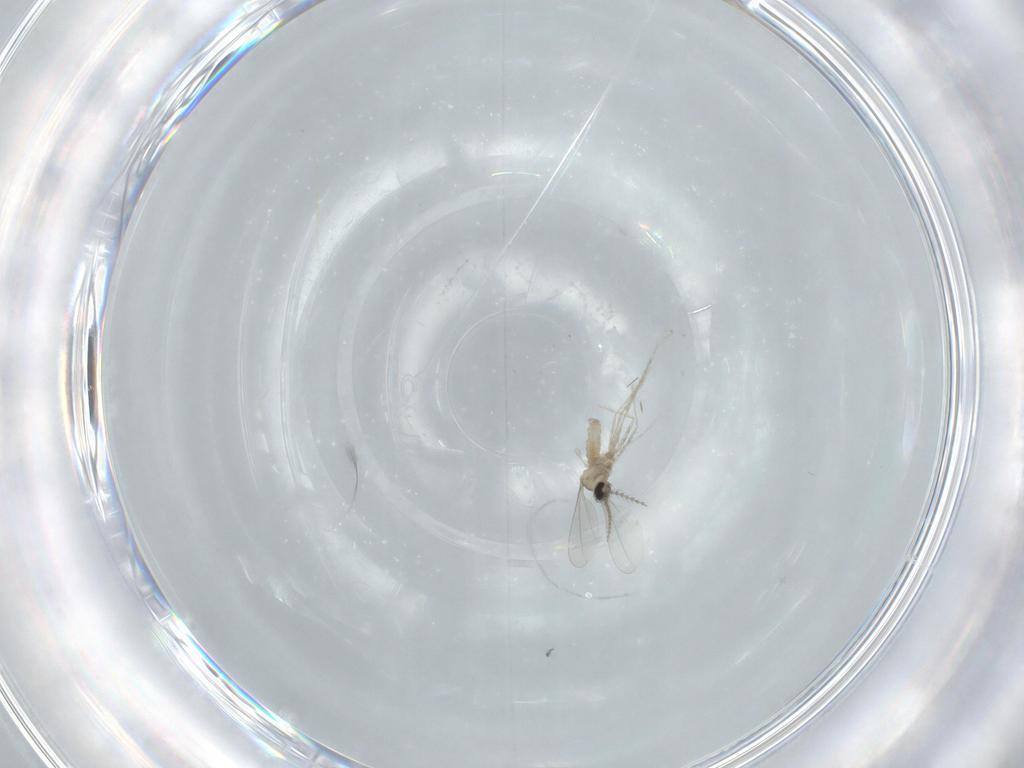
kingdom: Animalia
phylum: Arthropoda
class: Insecta
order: Diptera
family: Cecidomyiidae
